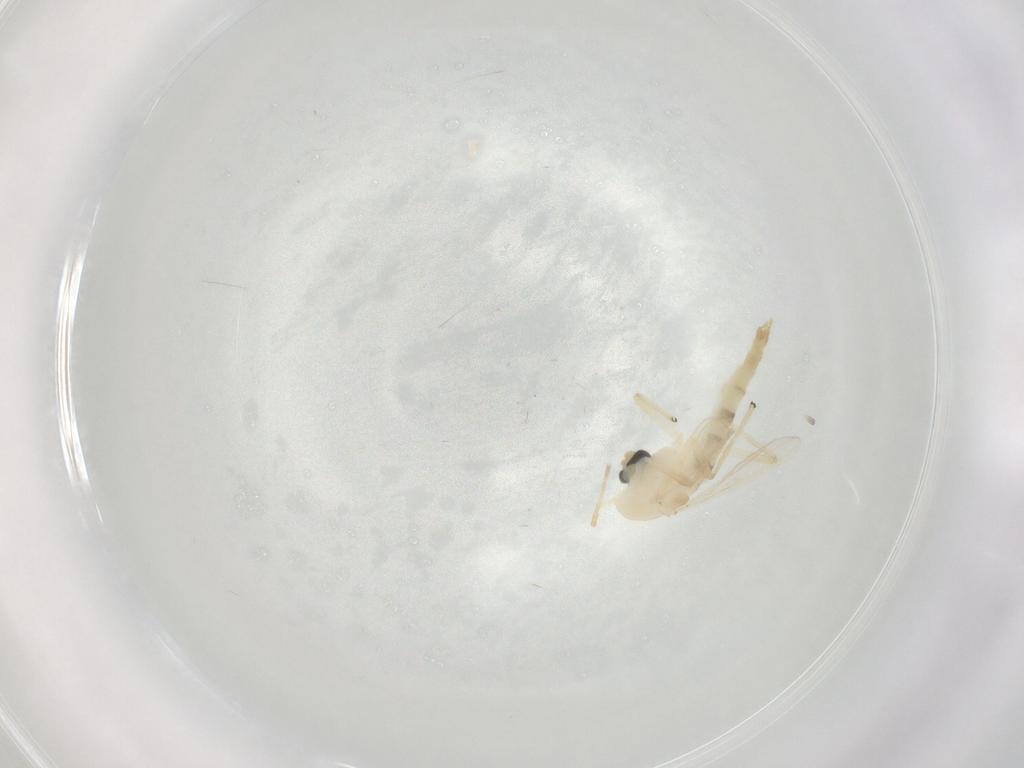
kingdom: Animalia
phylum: Arthropoda
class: Insecta
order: Diptera
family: Chironomidae
